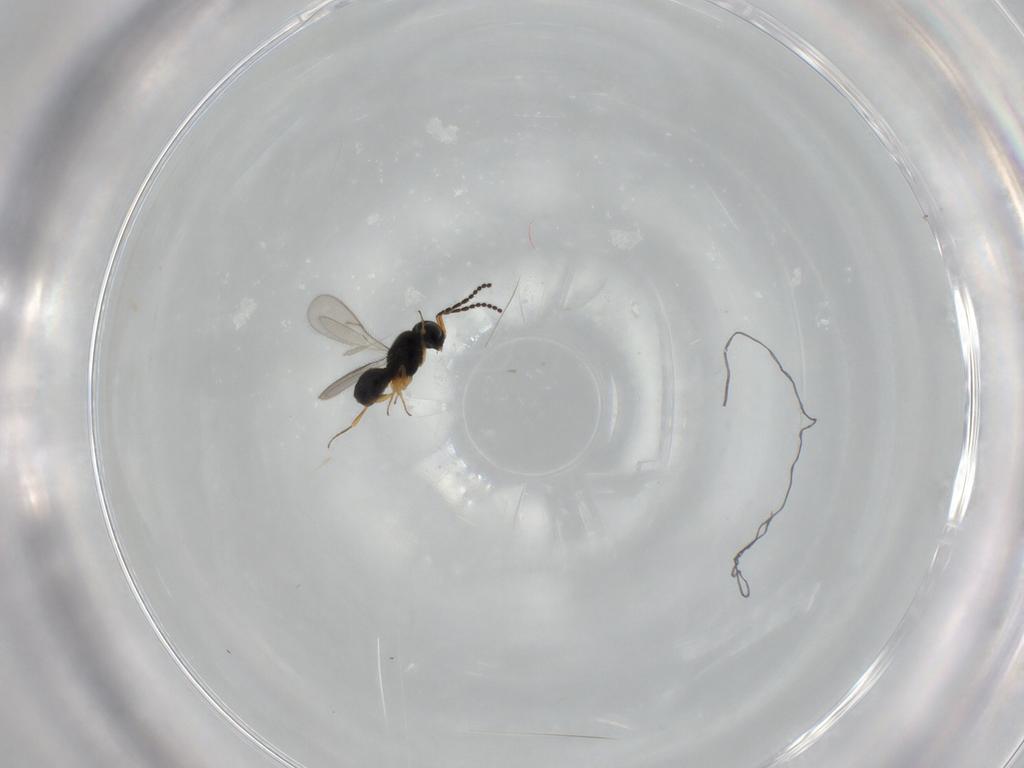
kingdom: Animalia
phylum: Arthropoda
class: Insecta
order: Hymenoptera
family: Scelionidae
